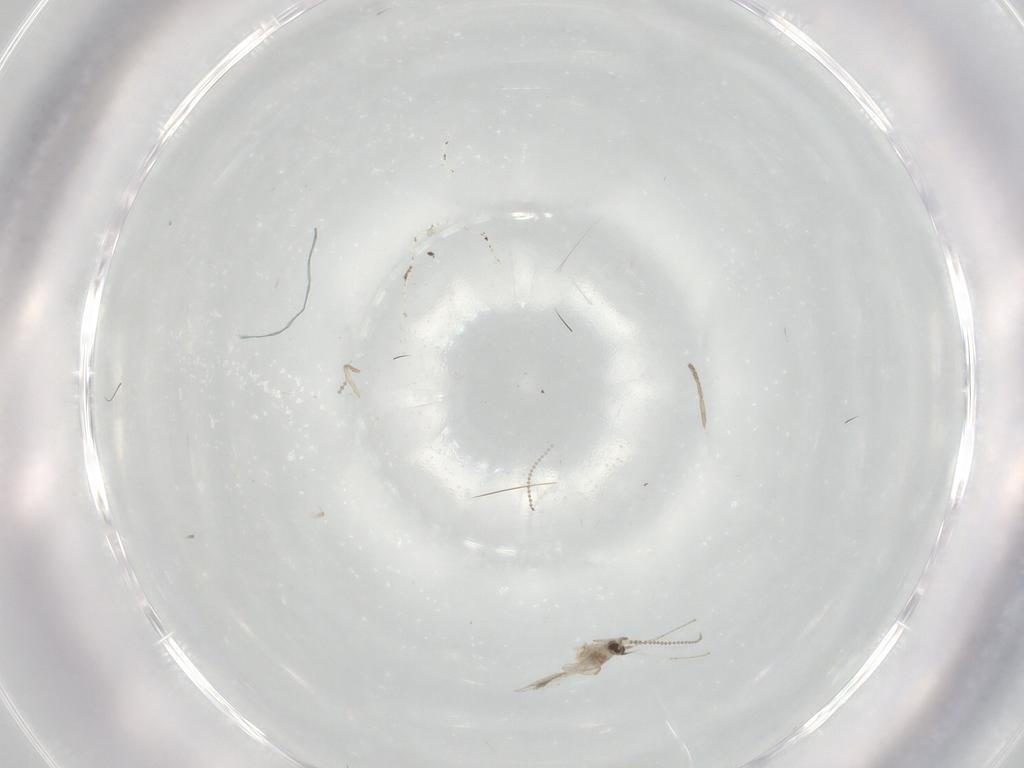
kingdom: Animalia
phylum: Arthropoda
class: Insecta
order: Diptera
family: Cecidomyiidae
